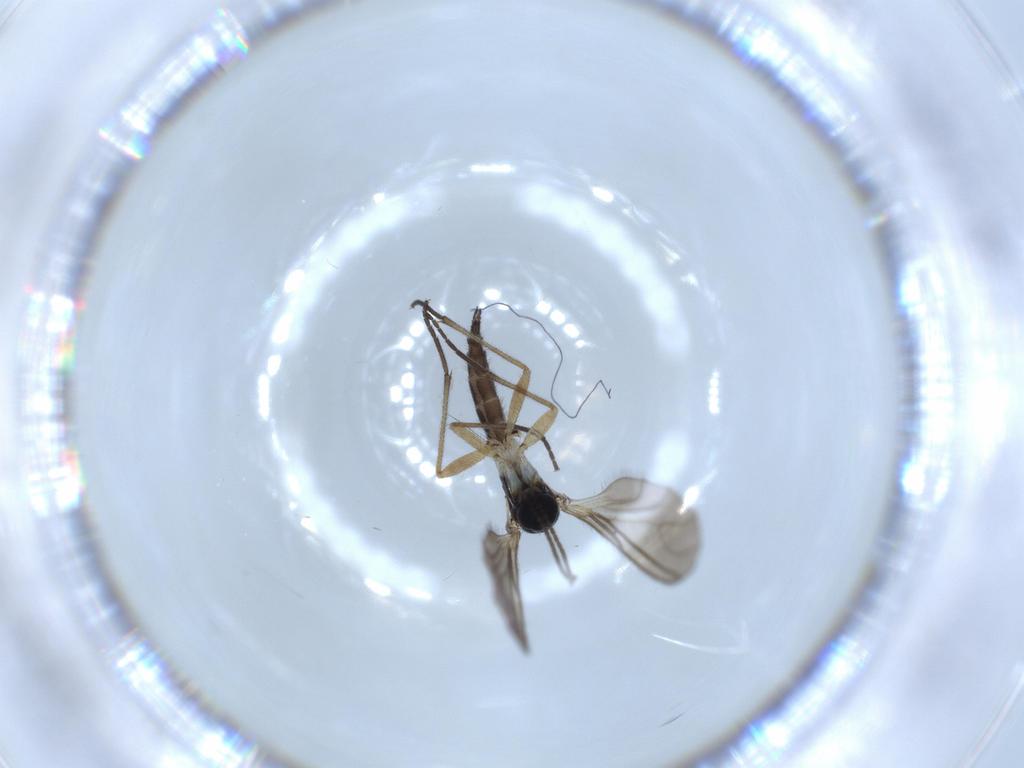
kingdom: Animalia
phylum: Arthropoda
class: Insecta
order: Diptera
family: Sciaridae
